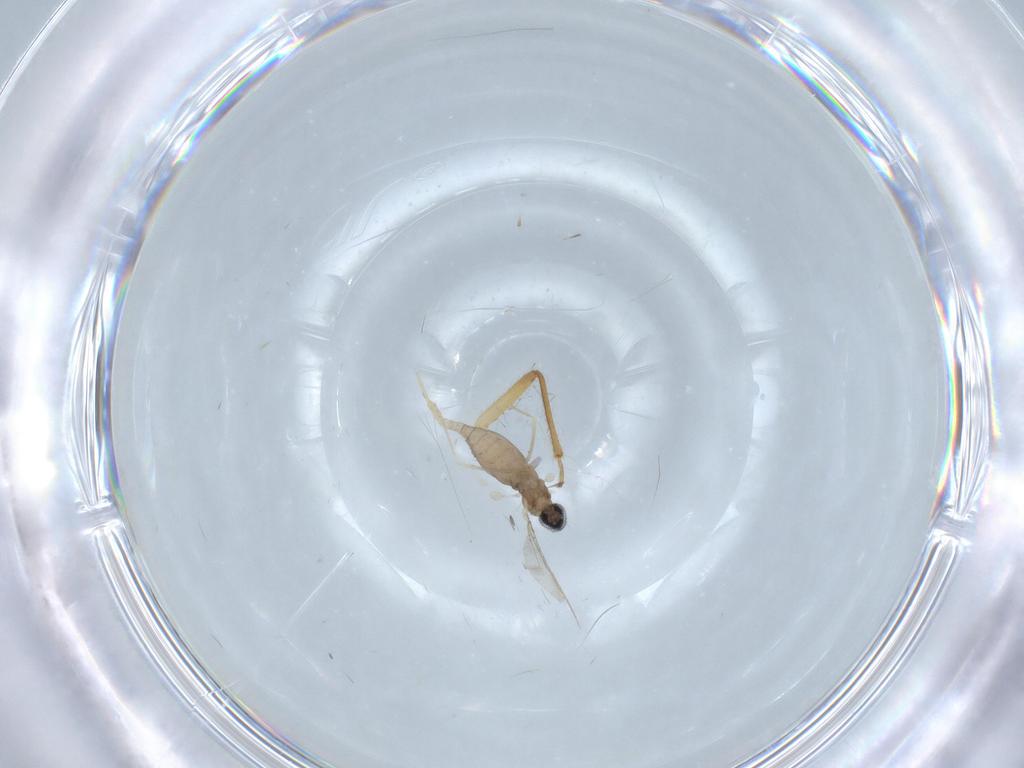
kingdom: Animalia
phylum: Arthropoda
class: Insecta
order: Diptera
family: Cecidomyiidae
